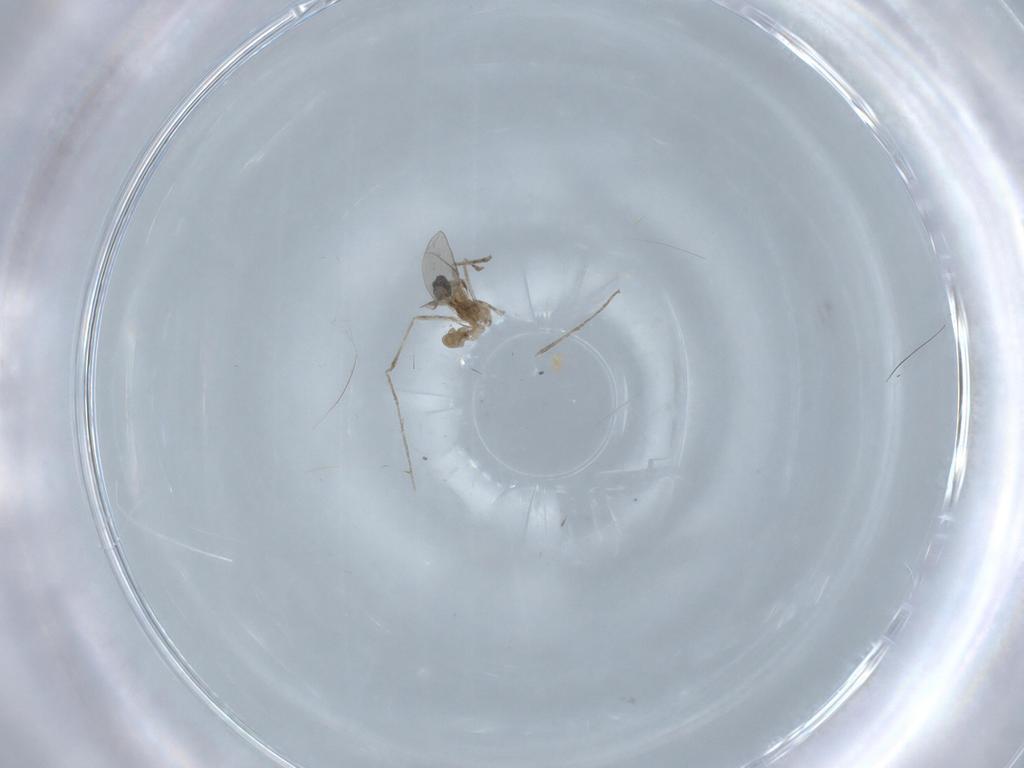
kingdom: Animalia
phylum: Arthropoda
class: Insecta
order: Diptera
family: Cecidomyiidae
